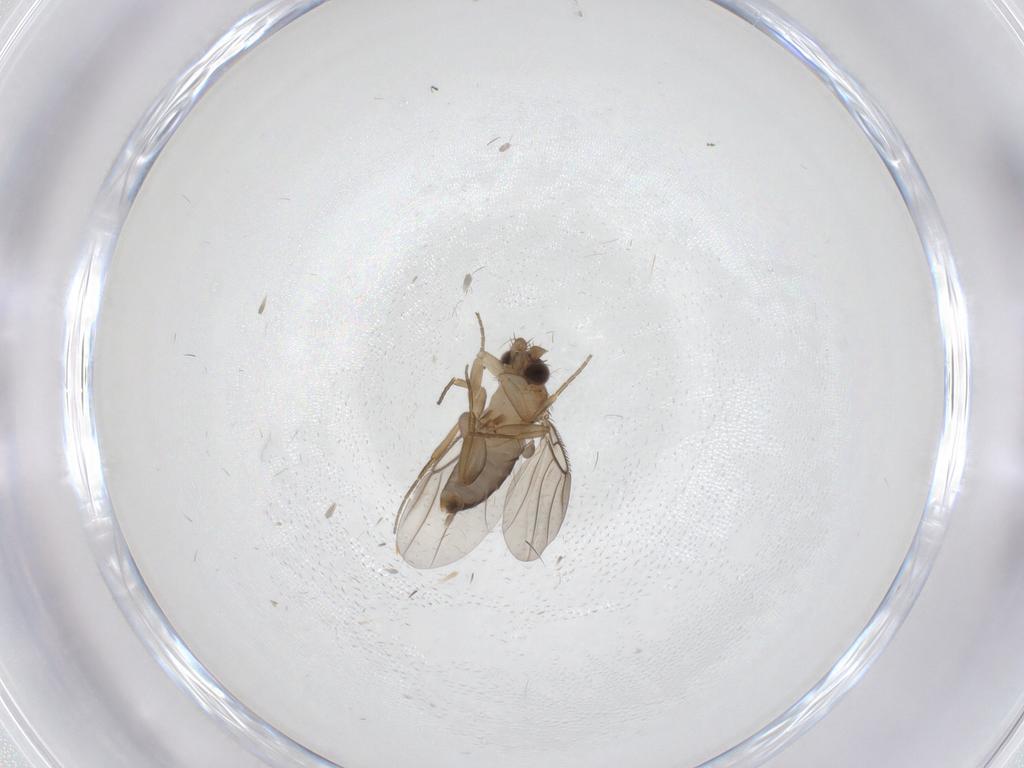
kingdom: Animalia
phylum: Arthropoda
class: Insecta
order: Diptera
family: Phoridae
